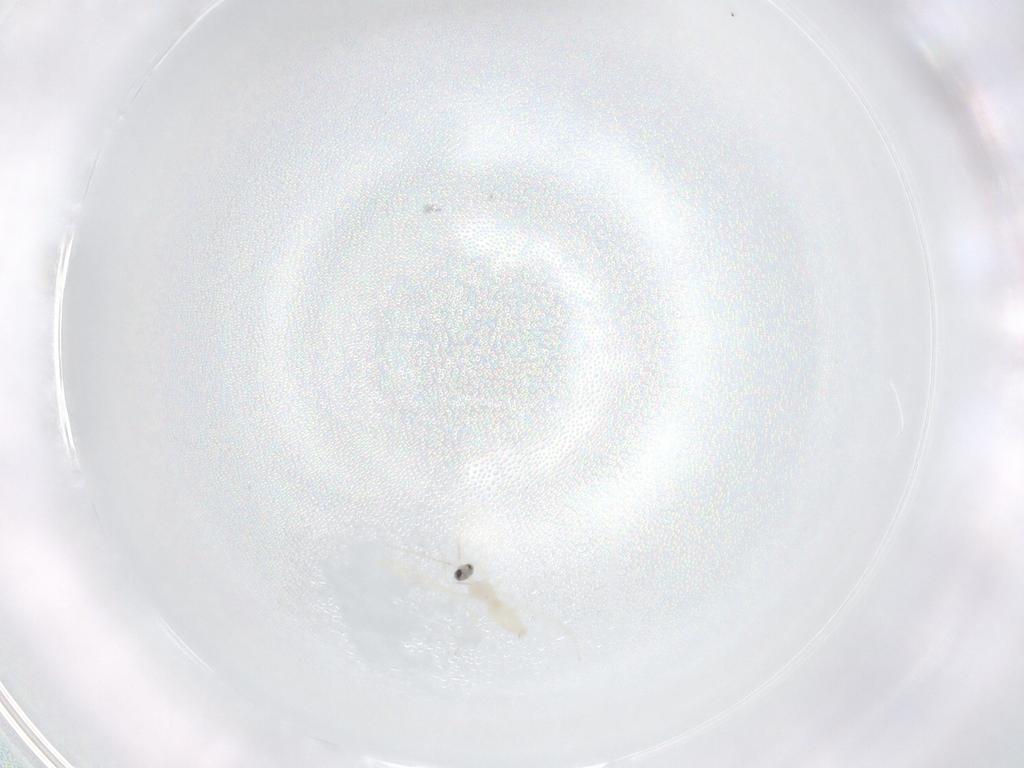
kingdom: Animalia
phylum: Arthropoda
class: Insecta
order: Diptera
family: Cecidomyiidae
